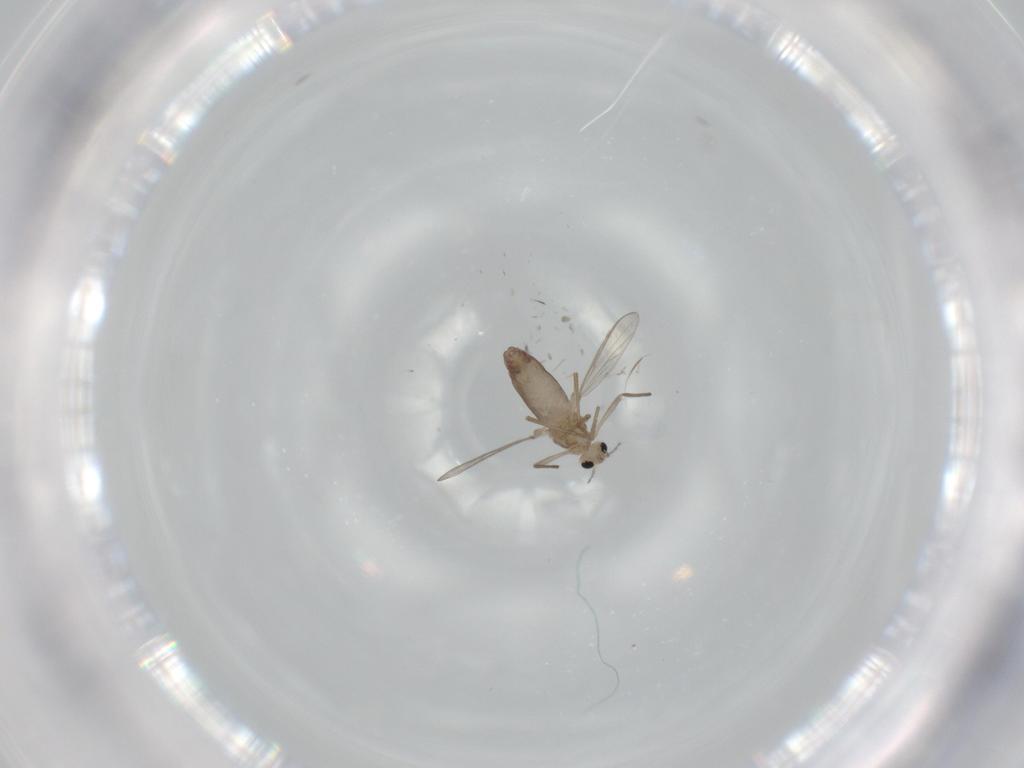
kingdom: Animalia
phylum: Arthropoda
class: Insecta
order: Diptera
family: Chironomidae
